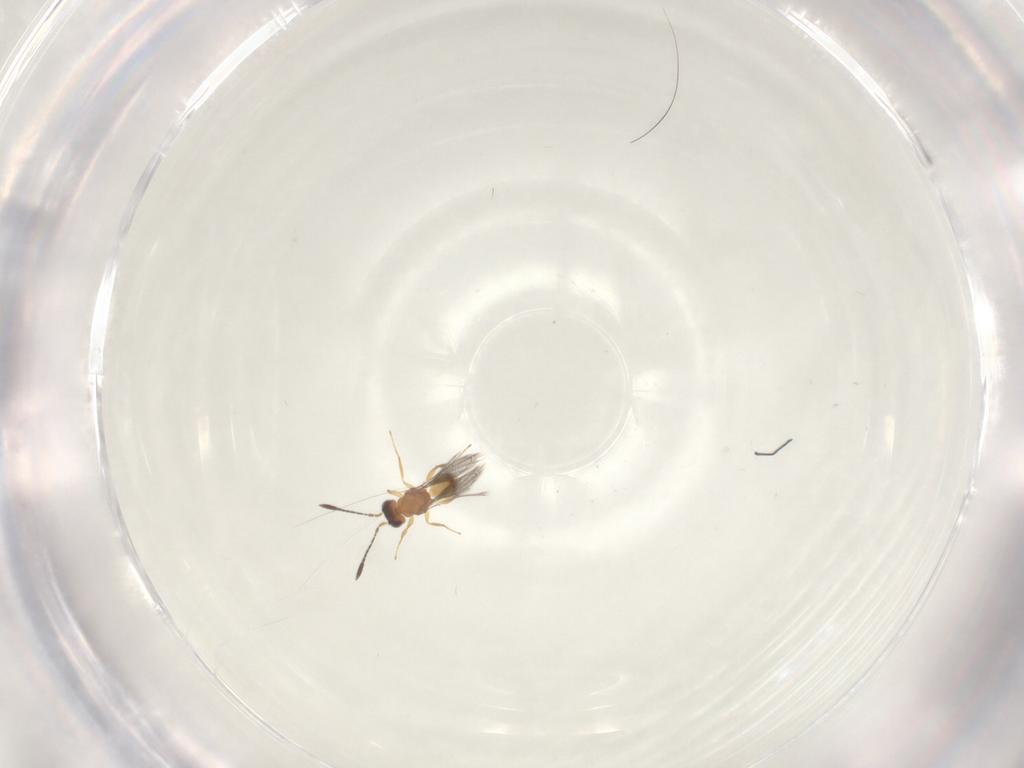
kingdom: Animalia
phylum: Arthropoda
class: Insecta
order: Hymenoptera
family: Mymaridae
